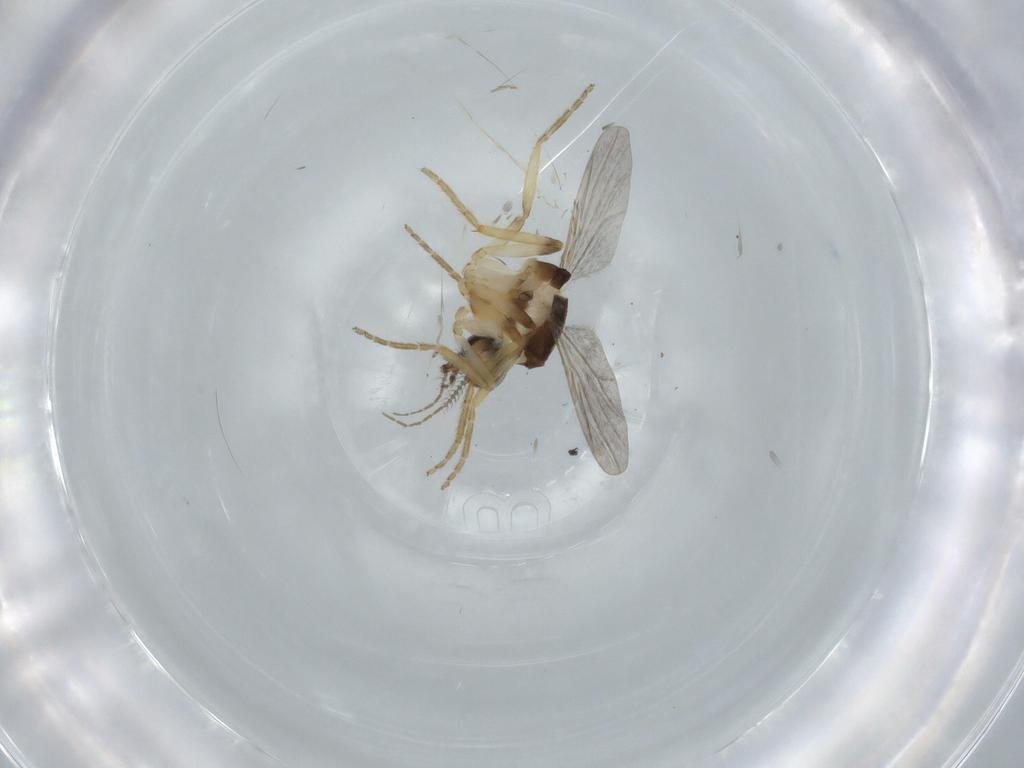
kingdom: Animalia
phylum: Arthropoda
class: Insecta
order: Diptera
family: Ceratopogonidae
